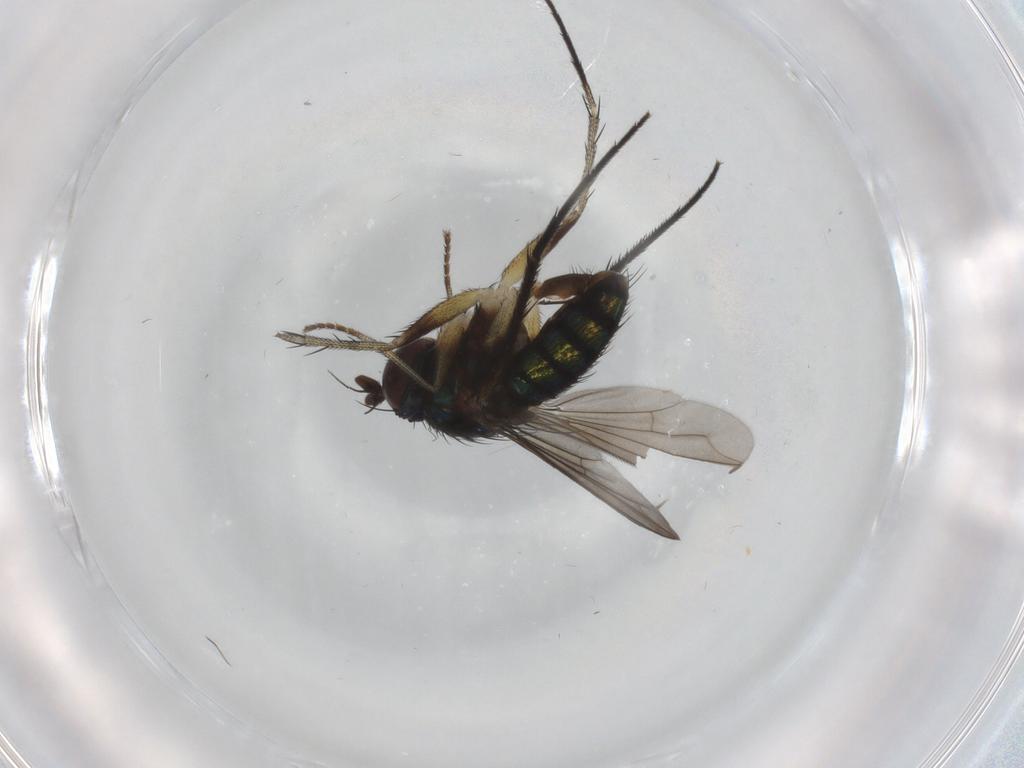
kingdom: Animalia
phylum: Arthropoda
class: Insecta
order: Diptera
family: Dolichopodidae
